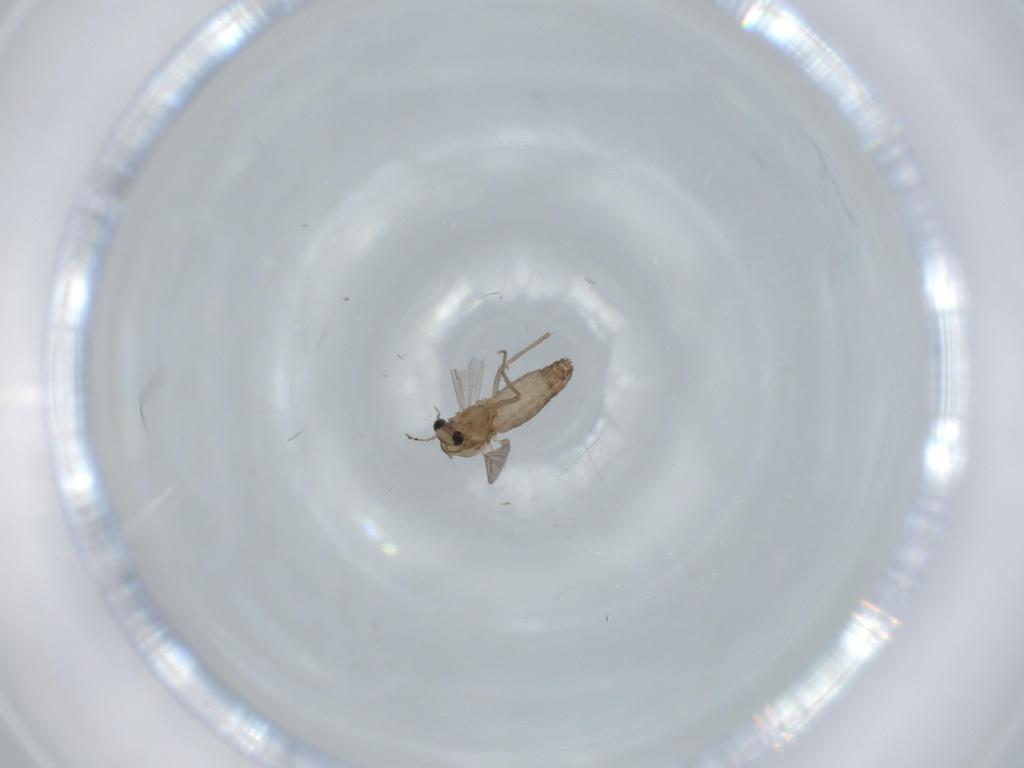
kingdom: Animalia
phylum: Arthropoda
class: Insecta
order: Diptera
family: Chironomidae
